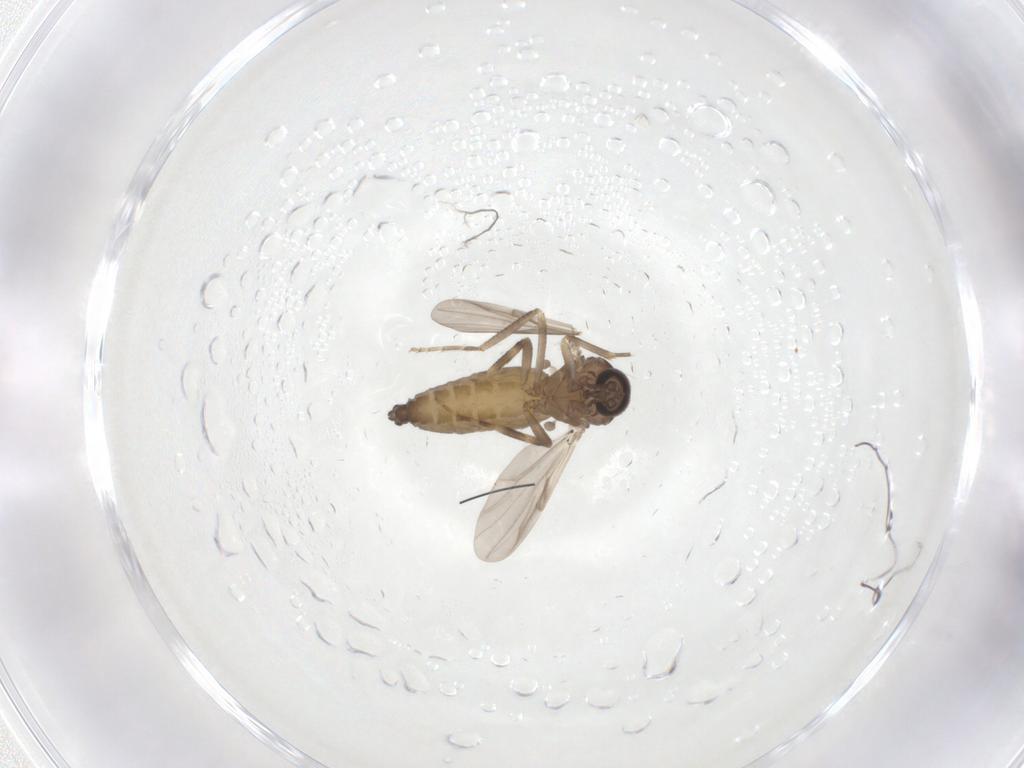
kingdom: Animalia
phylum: Arthropoda
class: Insecta
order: Diptera
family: Ceratopogonidae
